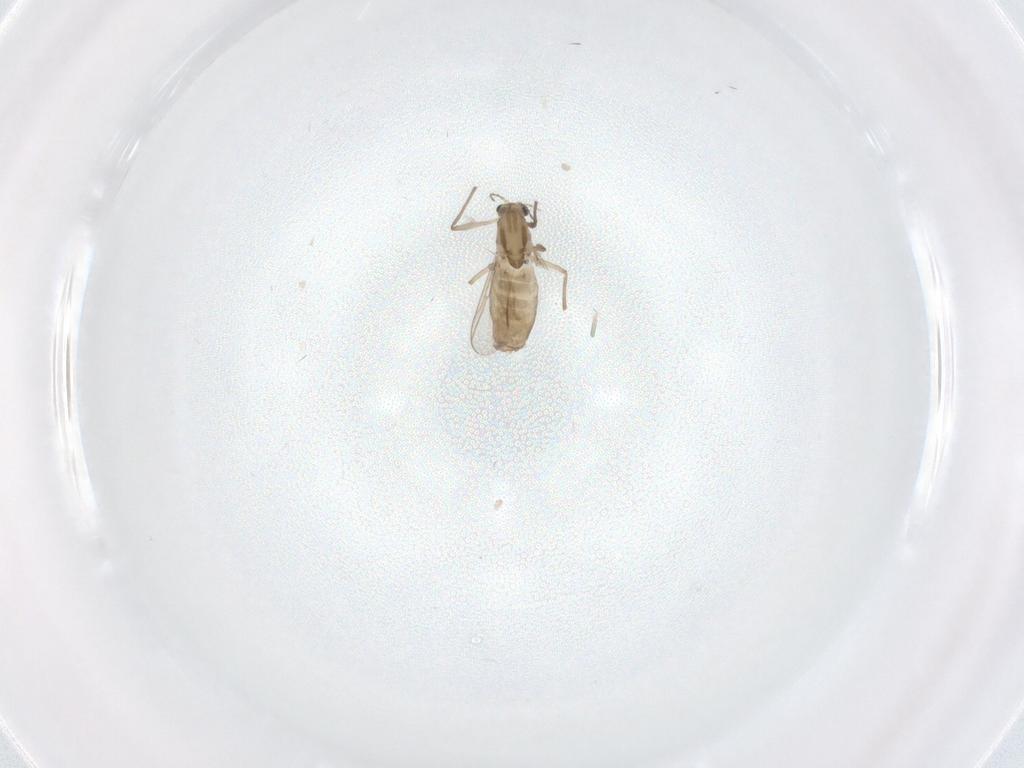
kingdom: Animalia
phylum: Arthropoda
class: Insecta
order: Diptera
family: Chironomidae
